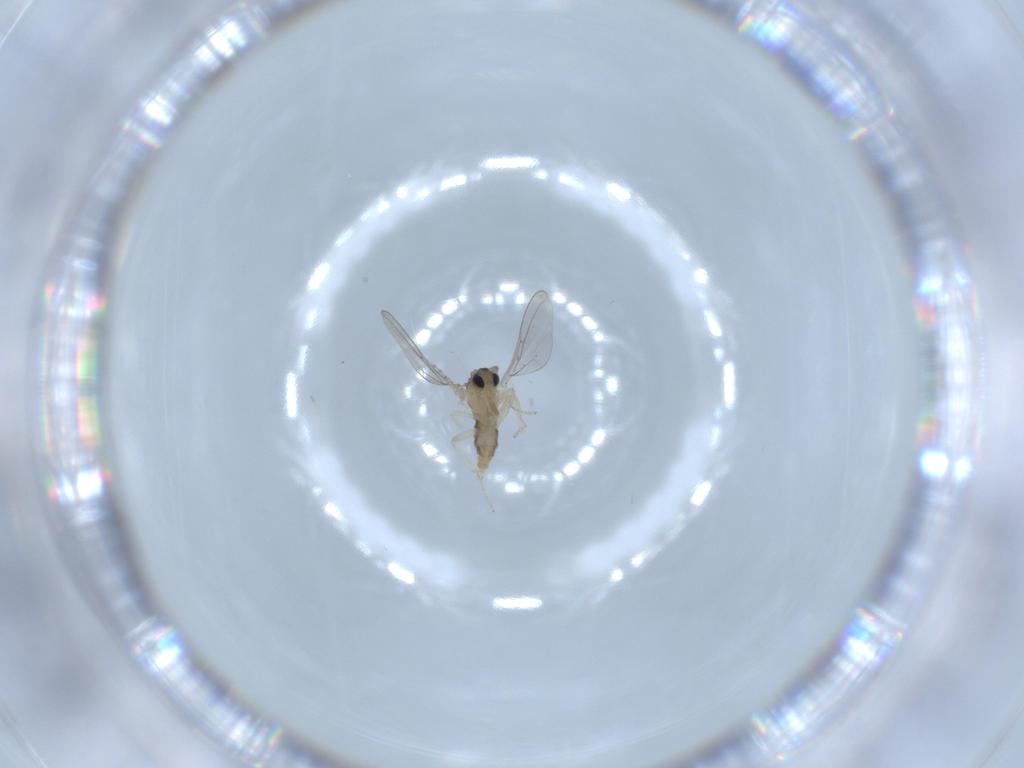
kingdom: Animalia
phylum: Arthropoda
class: Insecta
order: Diptera
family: Cecidomyiidae
